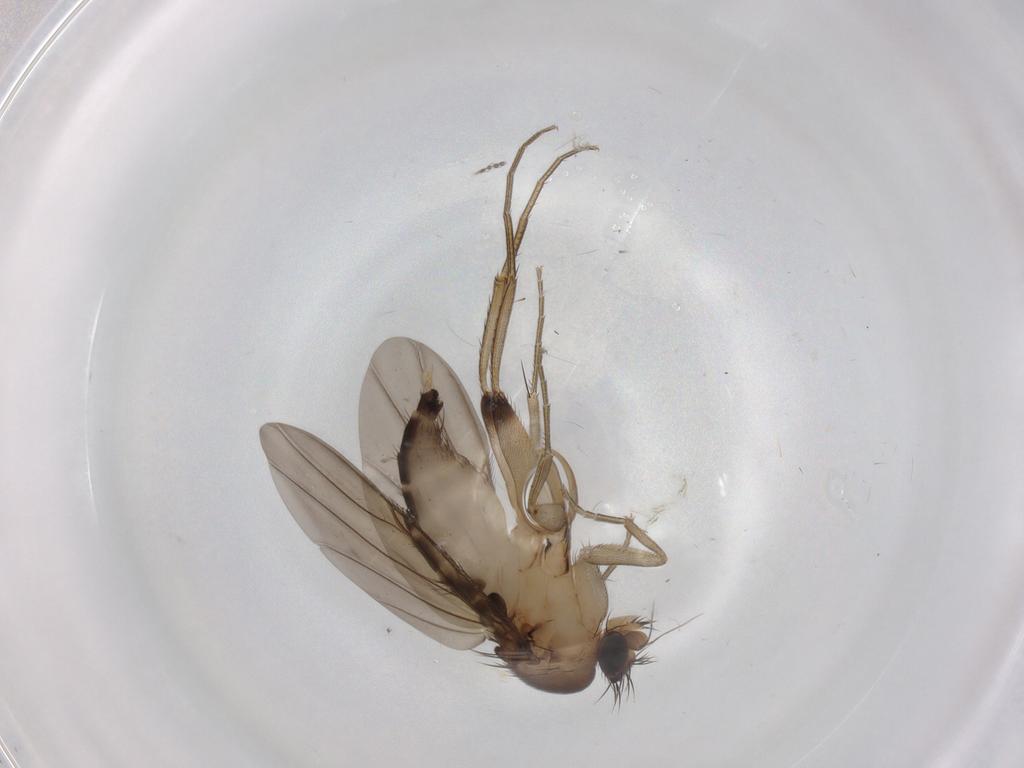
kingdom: Animalia
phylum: Arthropoda
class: Insecta
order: Diptera
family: Phoridae
